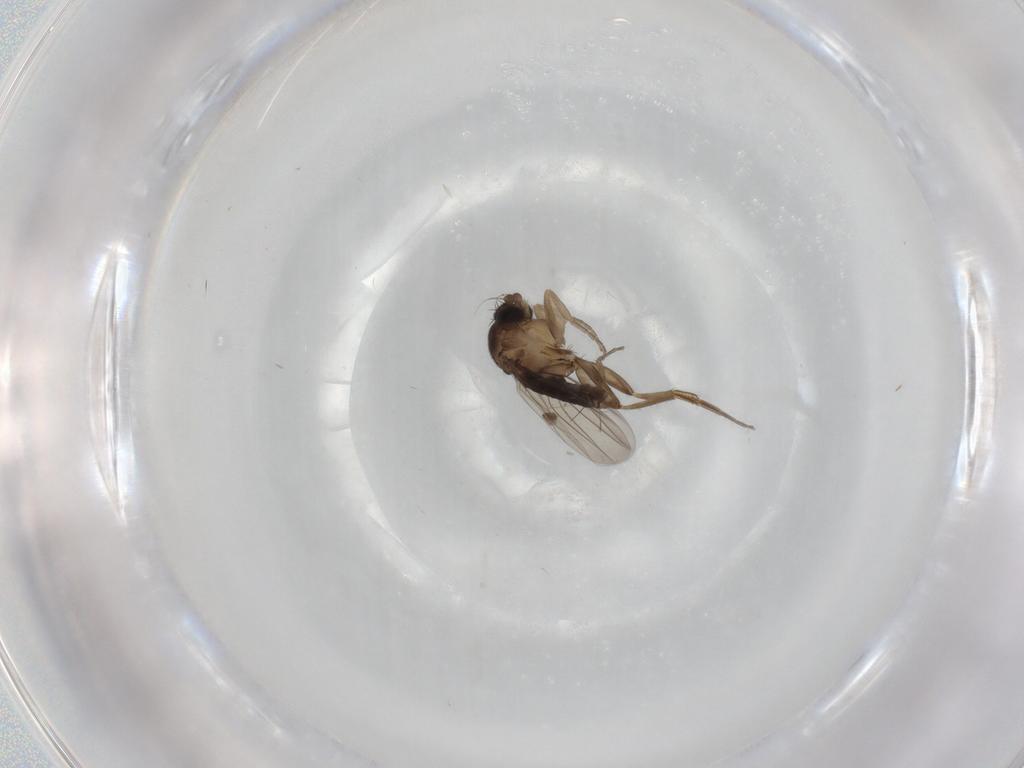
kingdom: Animalia
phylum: Arthropoda
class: Insecta
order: Diptera
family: Phoridae
